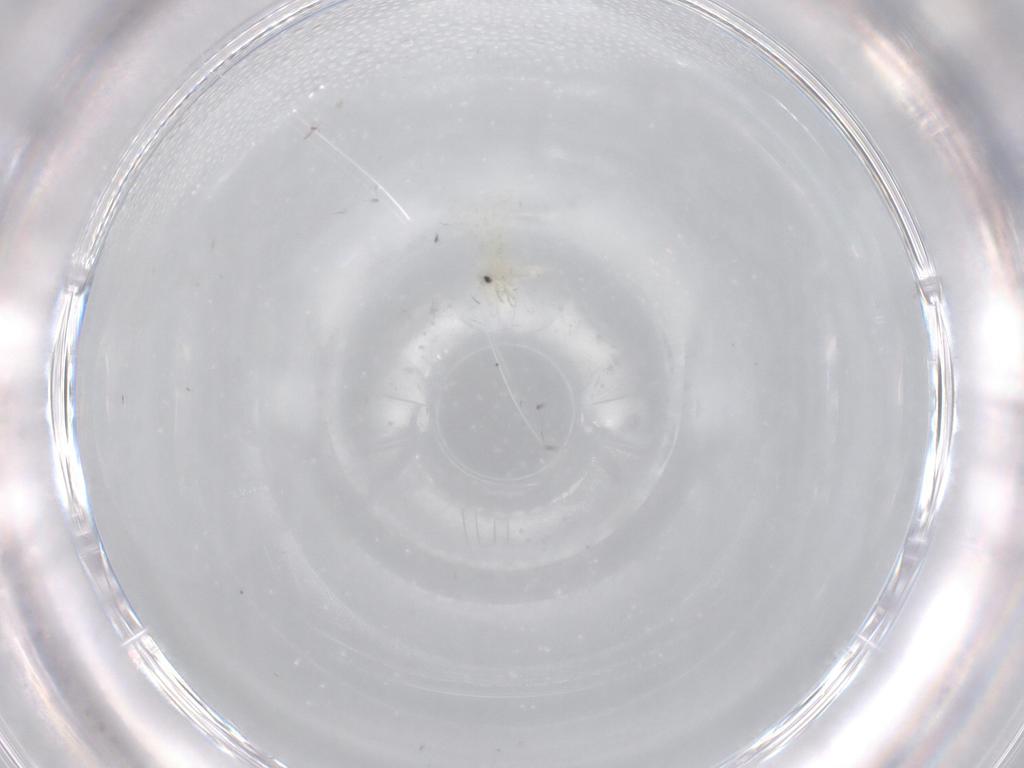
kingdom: Animalia
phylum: Arthropoda
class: Insecta
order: Hemiptera
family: Aleyrodidae
